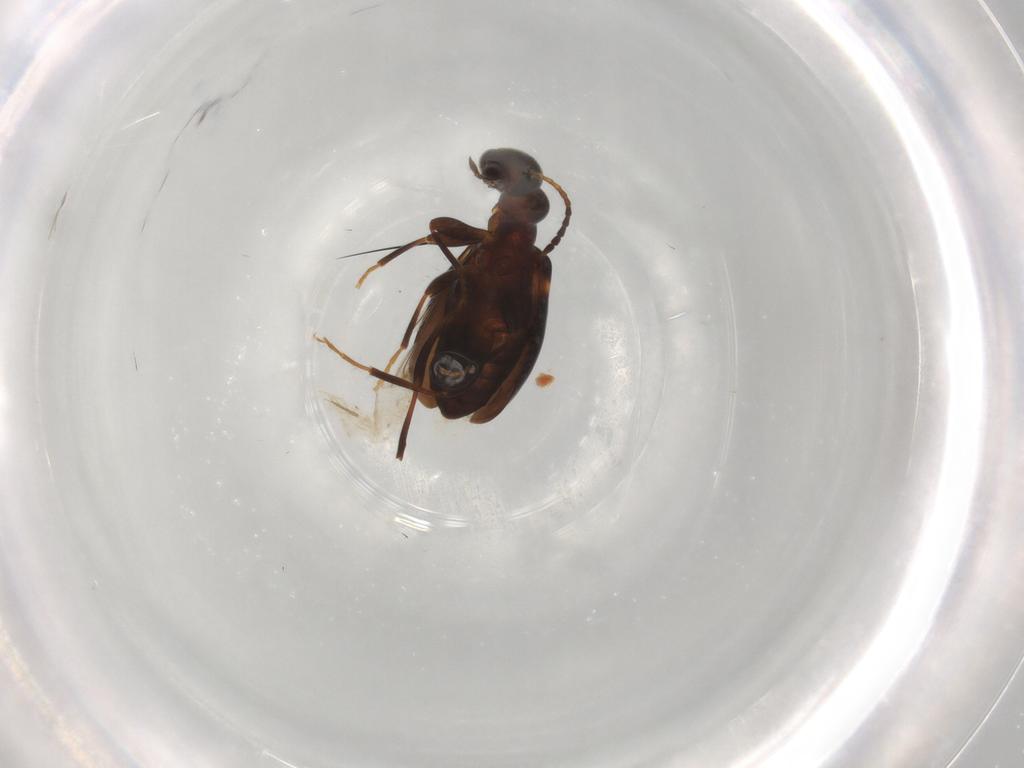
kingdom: Animalia
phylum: Arthropoda
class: Insecta
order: Coleoptera
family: Anthicidae
